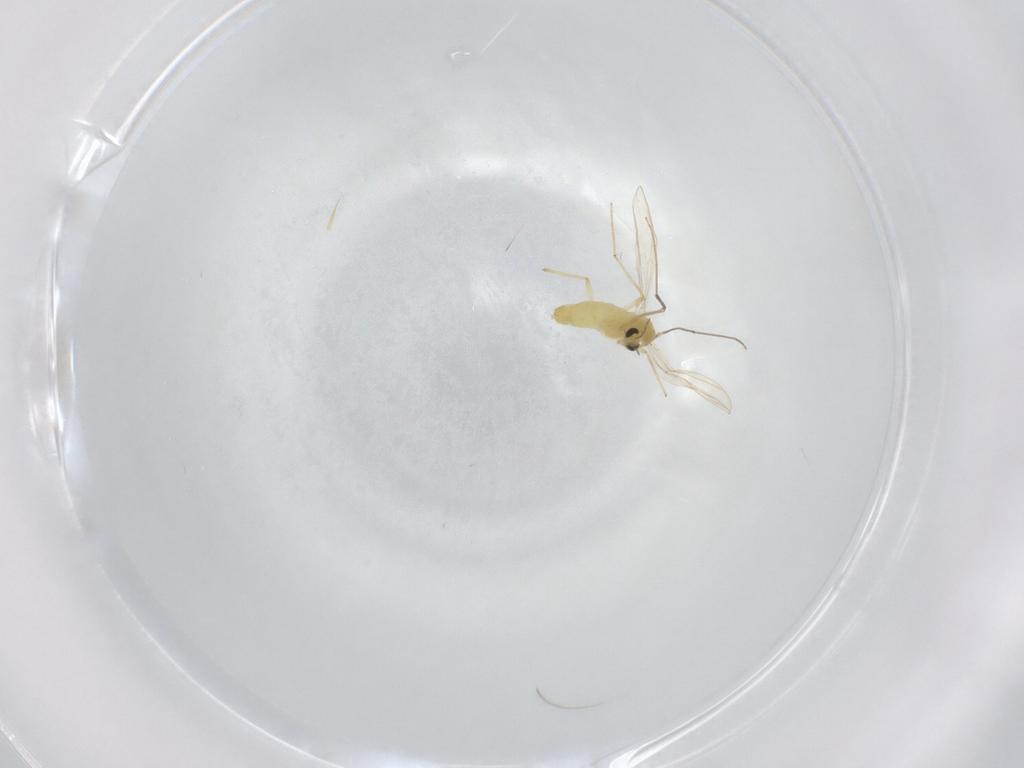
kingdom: Animalia
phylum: Arthropoda
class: Insecta
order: Diptera
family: Chironomidae
